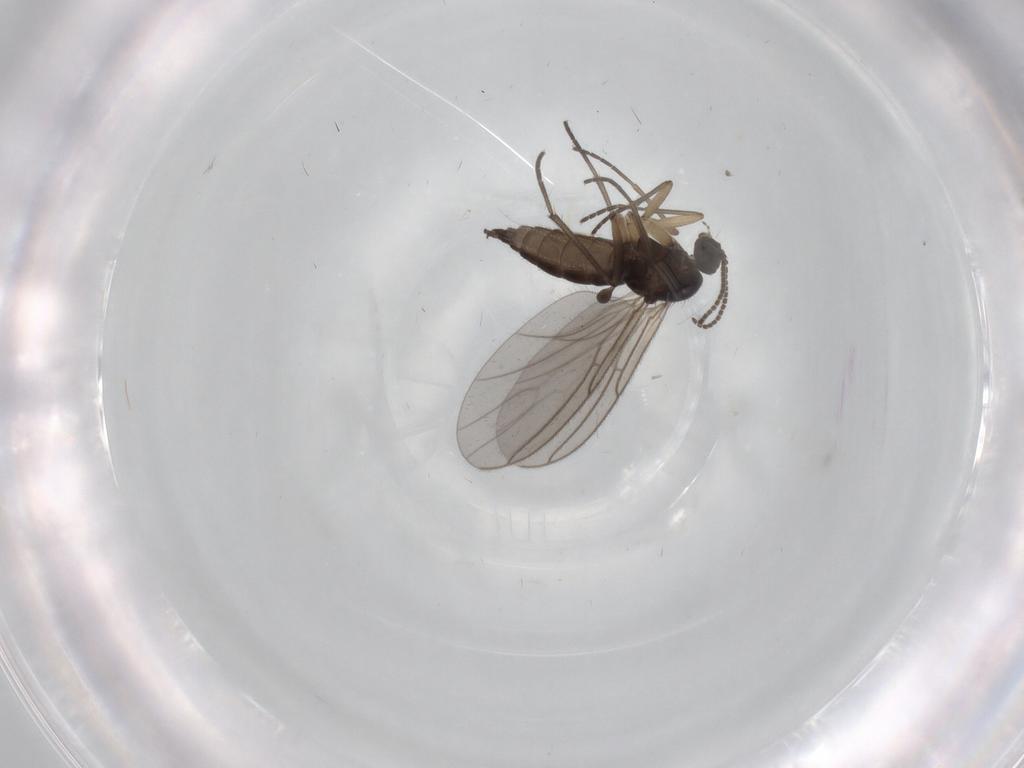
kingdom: Animalia
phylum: Arthropoda
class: Insecta
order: Diptera
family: Sciaridae
